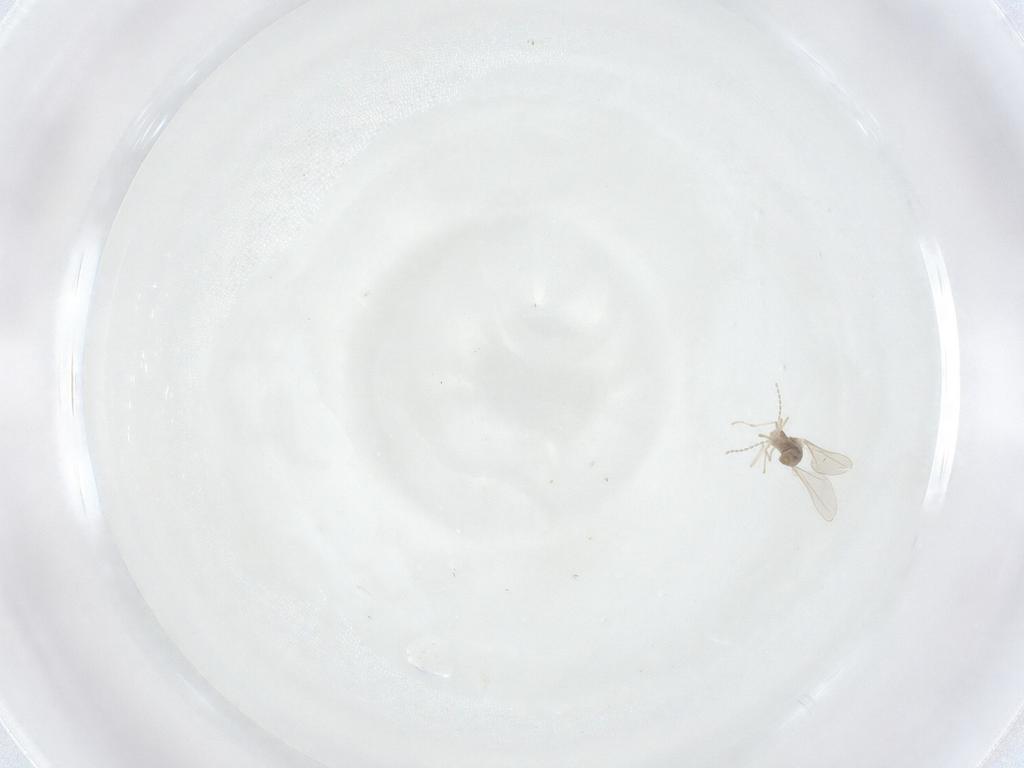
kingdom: Animalia
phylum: Arthropoda
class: Insecta
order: Diptera
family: Cecidomyiidae
